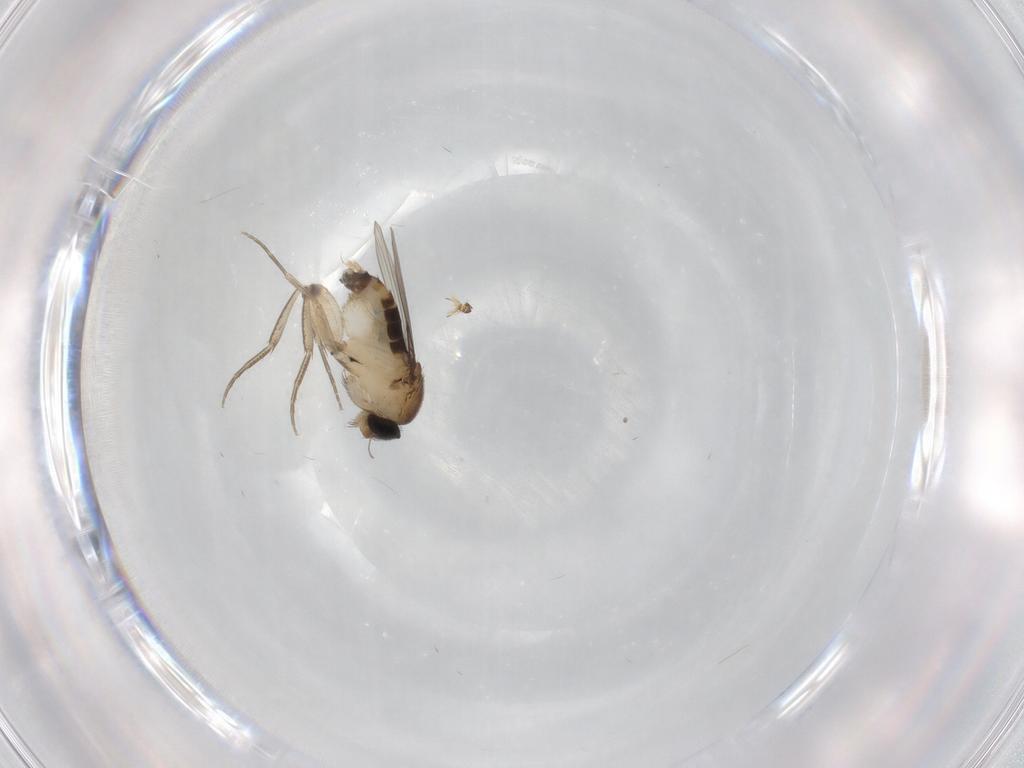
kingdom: Animalia
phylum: Arthropoda
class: Insecta
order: Diptera
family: Phoridae
